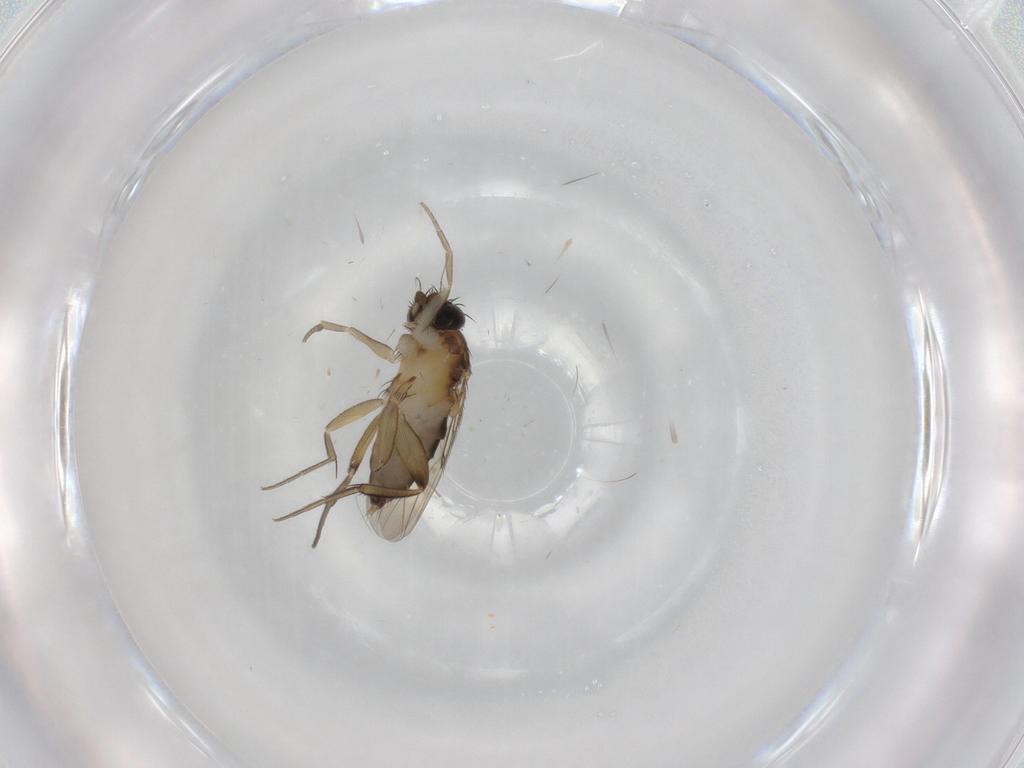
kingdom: Animalia
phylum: Arthropoda
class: Insecta
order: Diptera
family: Phoridae
